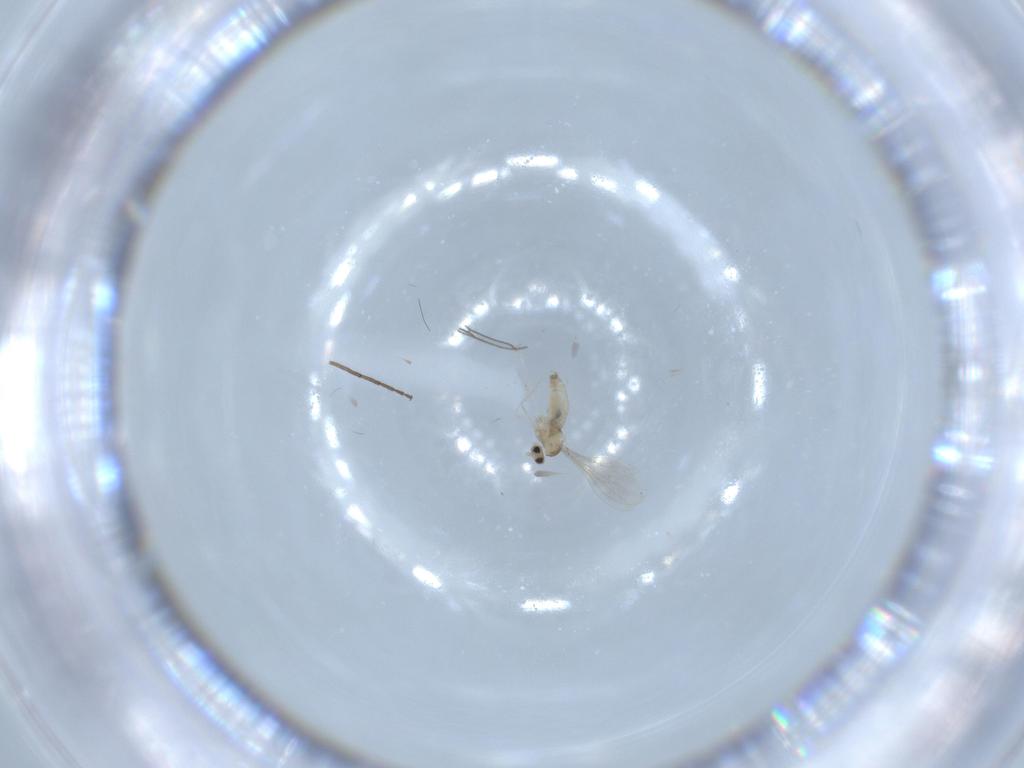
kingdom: Animalia
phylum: Arthropoda
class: Insecta
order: Diptera
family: Cecidomyiidae
